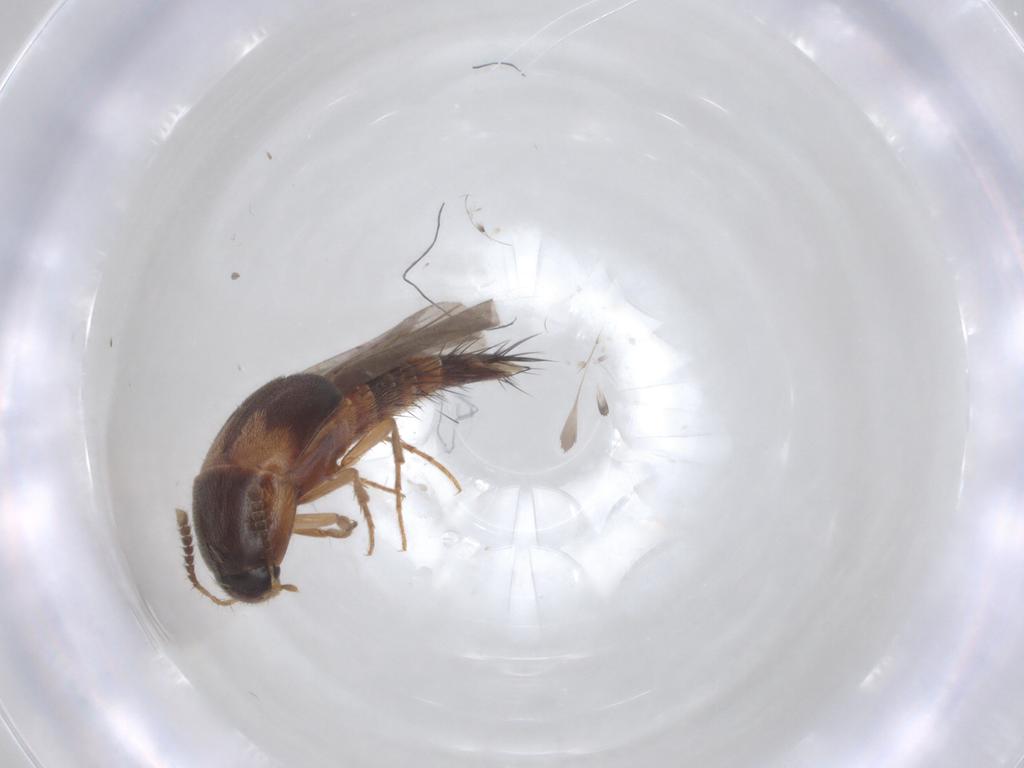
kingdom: Animalia
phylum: Arthropoda
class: Insecta
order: Coleoptera
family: Staphylinidae
